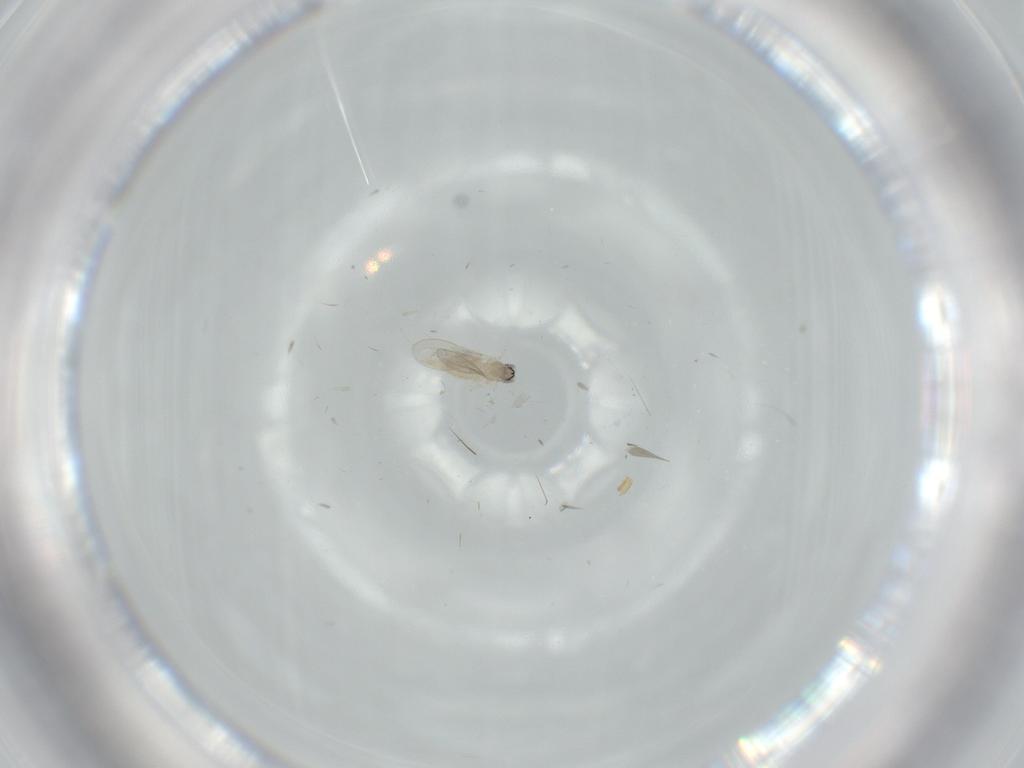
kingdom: Animalia
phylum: Arthropoda
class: Insecta
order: Diptera
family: Cecidomyiidae
